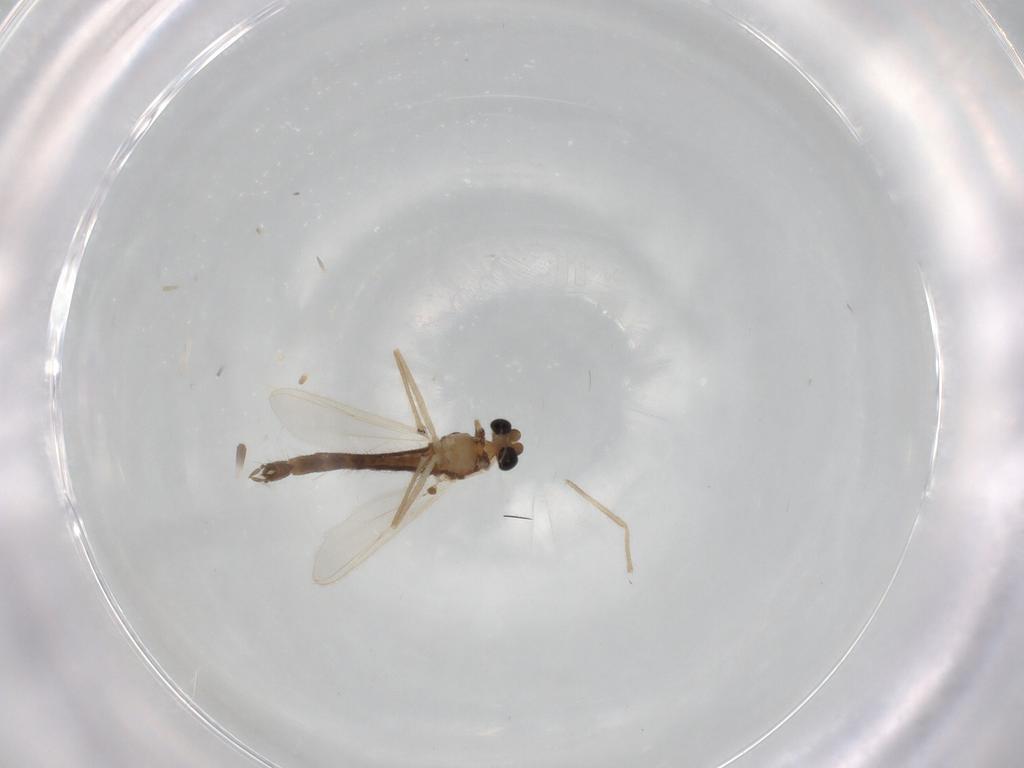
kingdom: Animalia
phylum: Arthropoda
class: Insecta
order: Diptera
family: Chironomidae
